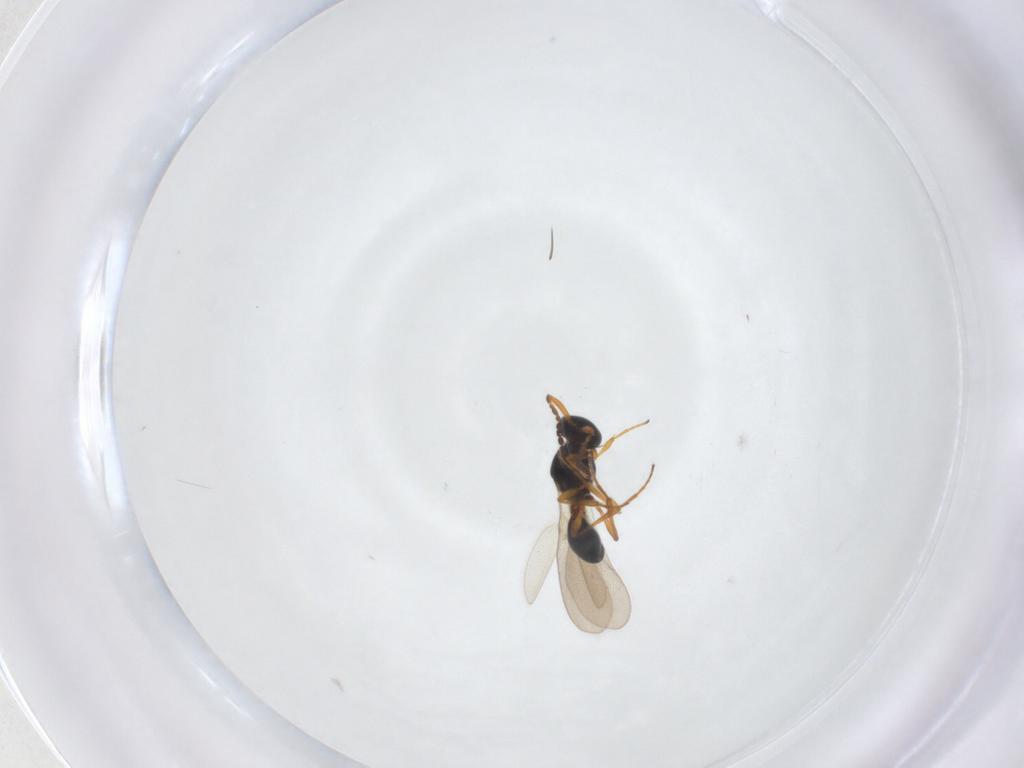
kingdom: Animalia
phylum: Arthropoda
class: Insecta
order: Hymenoptera
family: Platygastridae
